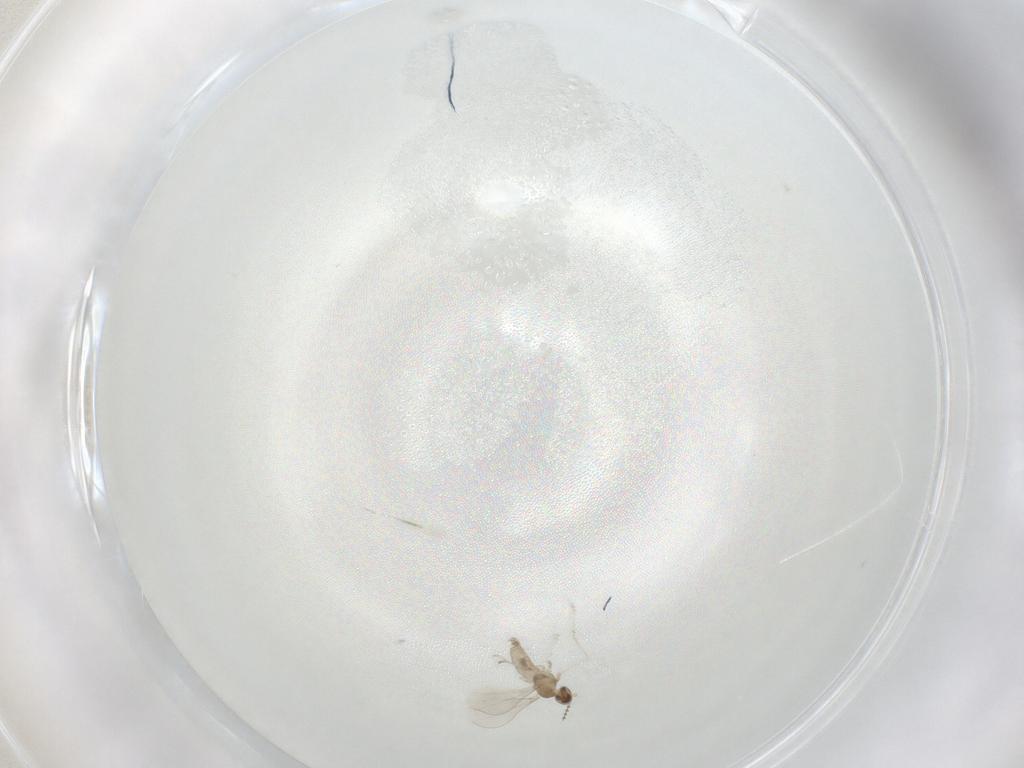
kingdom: Animalia
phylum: Arthropoda
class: Insecta
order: Diptera
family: Cecidomyiidae
